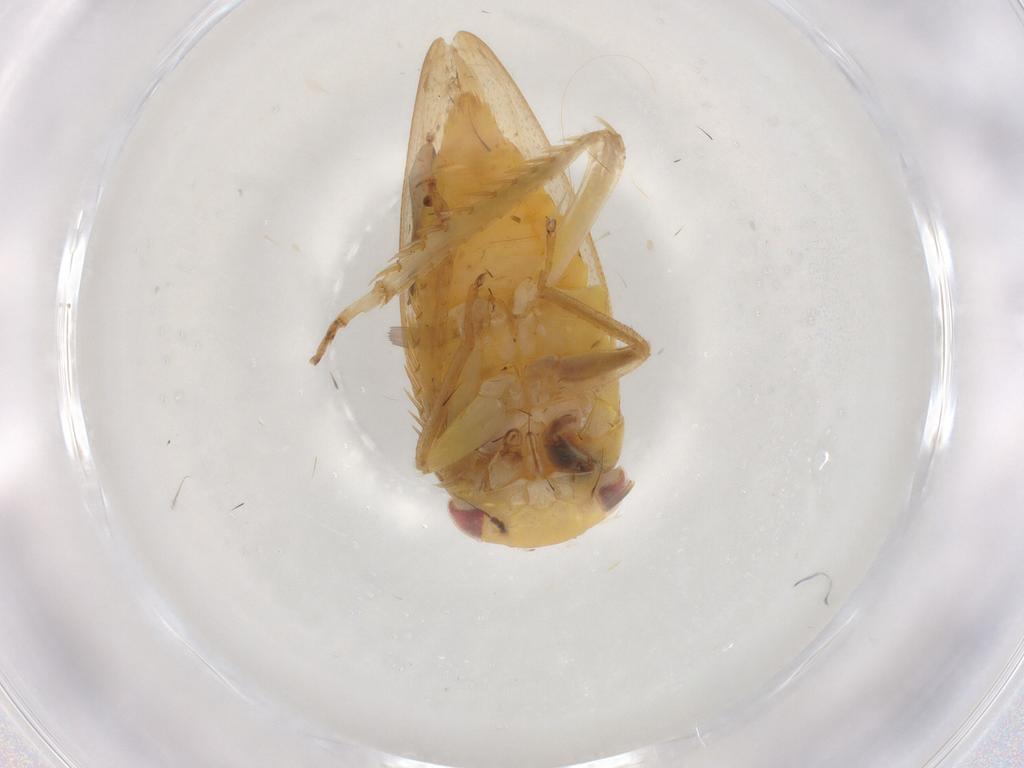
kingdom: Animalia
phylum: Arthropoda
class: Insecta
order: Hemiptera
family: Cicadellidae
